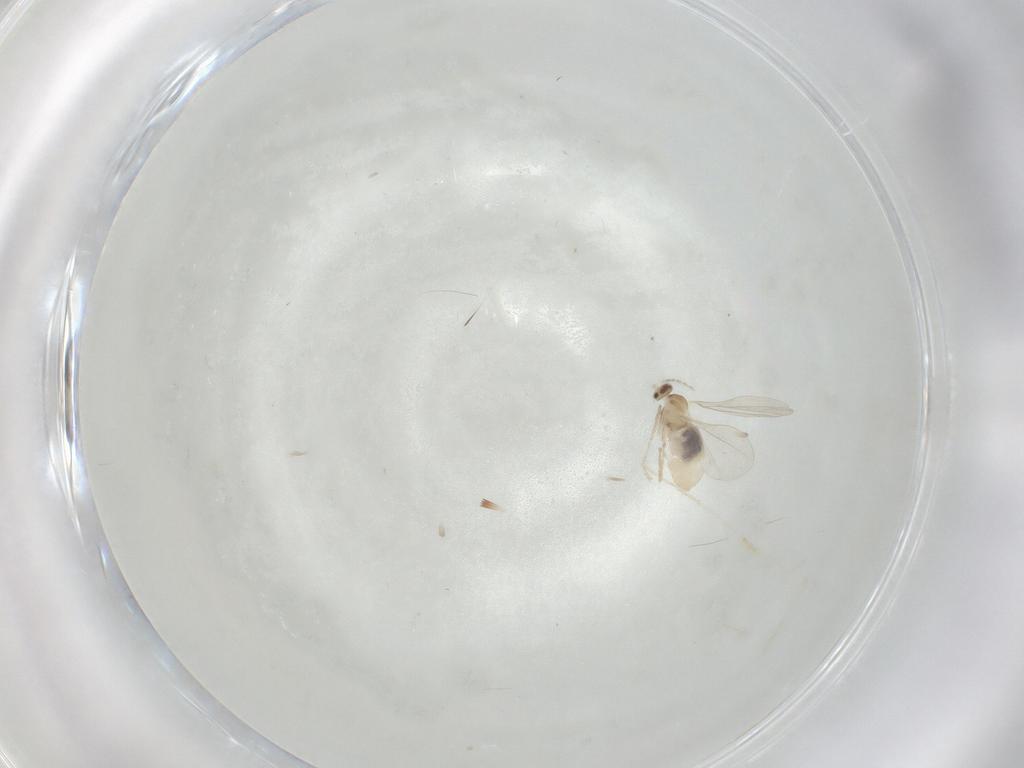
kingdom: Animalia
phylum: Arthropoda
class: Insecta
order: Diptera
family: Cecidomyiidae
